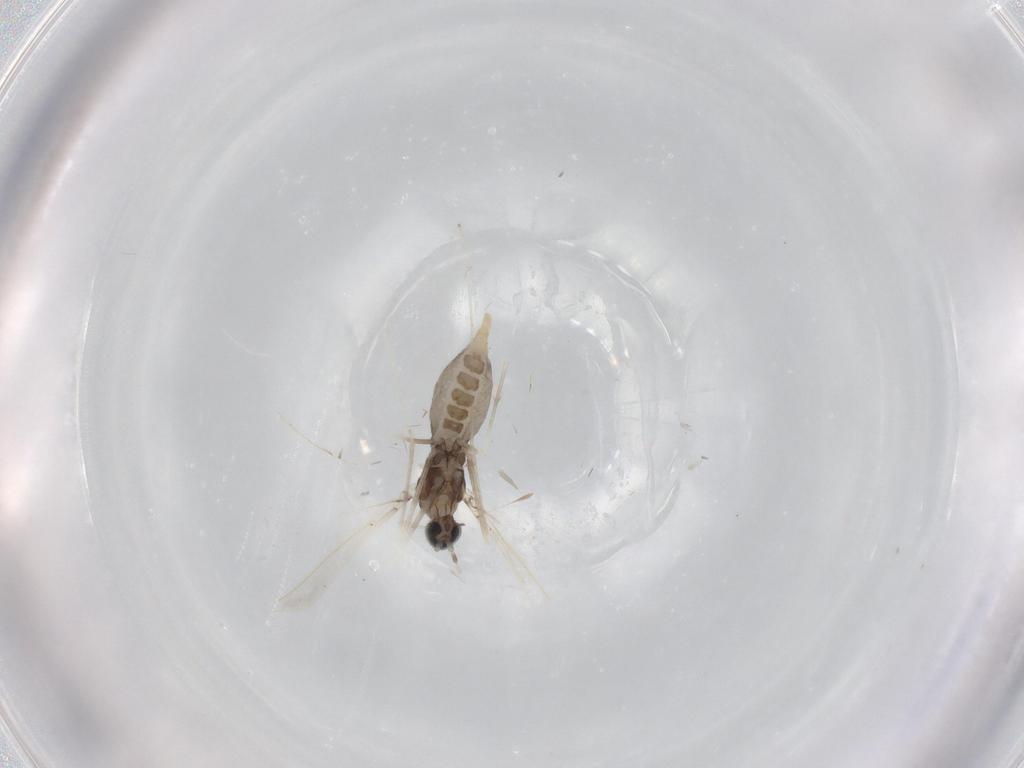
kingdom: Animalia
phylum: Arthropoda
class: Insecta
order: Diptera
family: Cecidomyiidae
